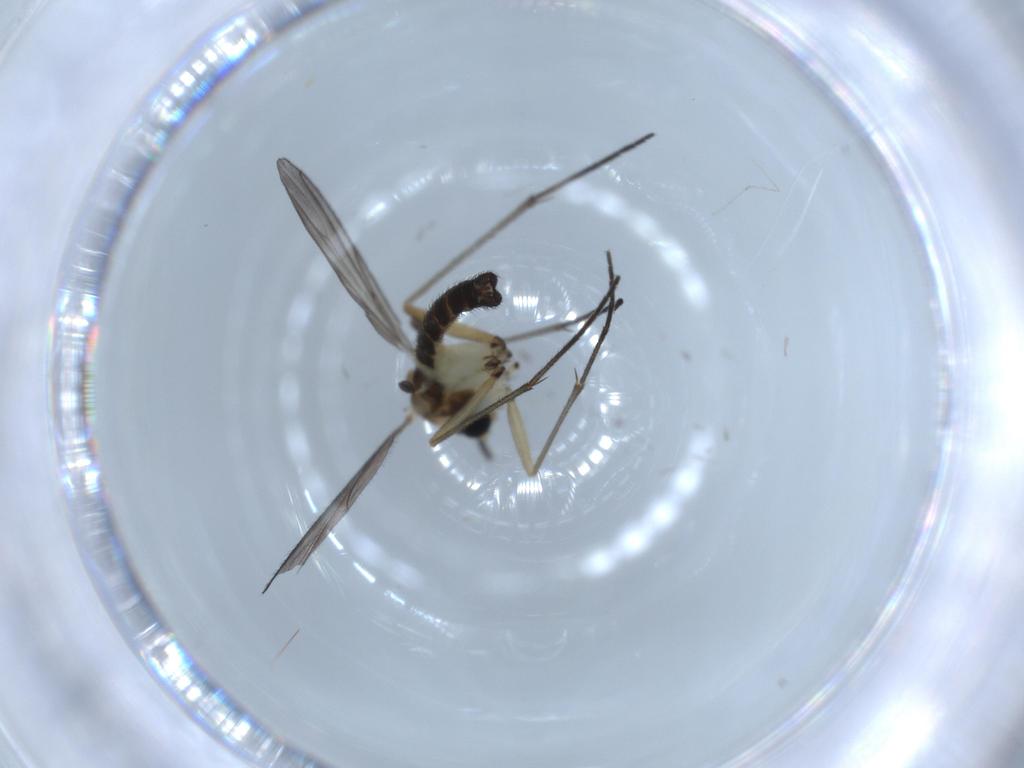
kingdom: Animalia
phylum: Arthropoda
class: Insecta
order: Diptera
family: Sciaridae
